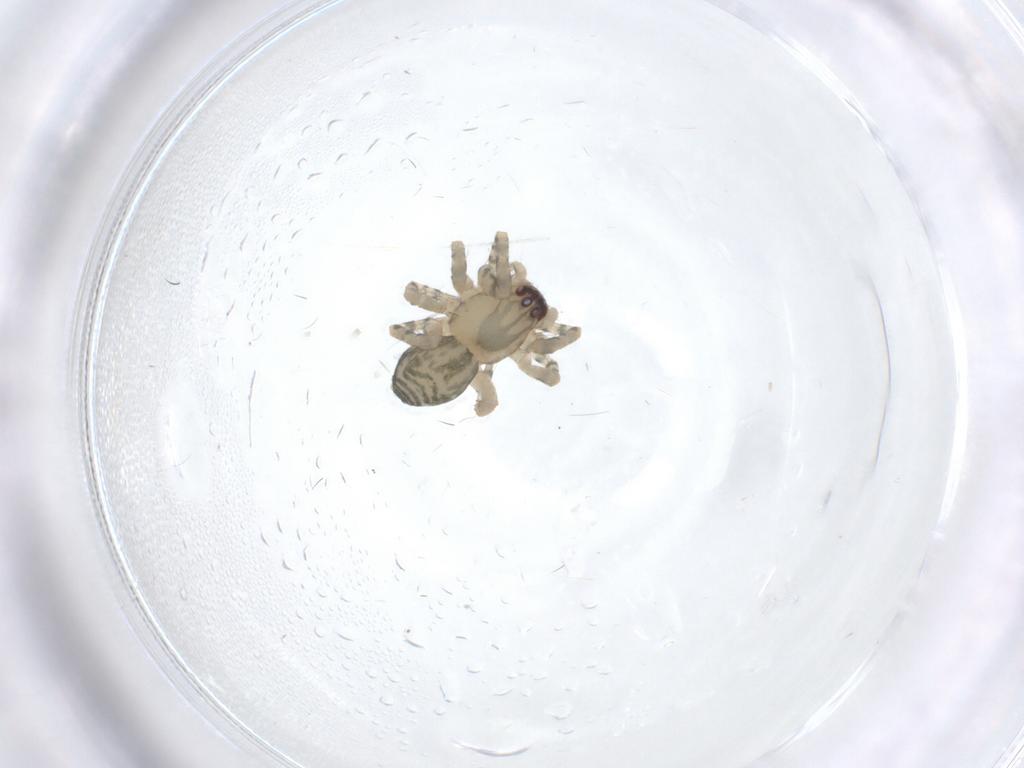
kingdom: Animalia
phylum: Arthropoda
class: Arachnida
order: Araneae
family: Anyphaenidae
